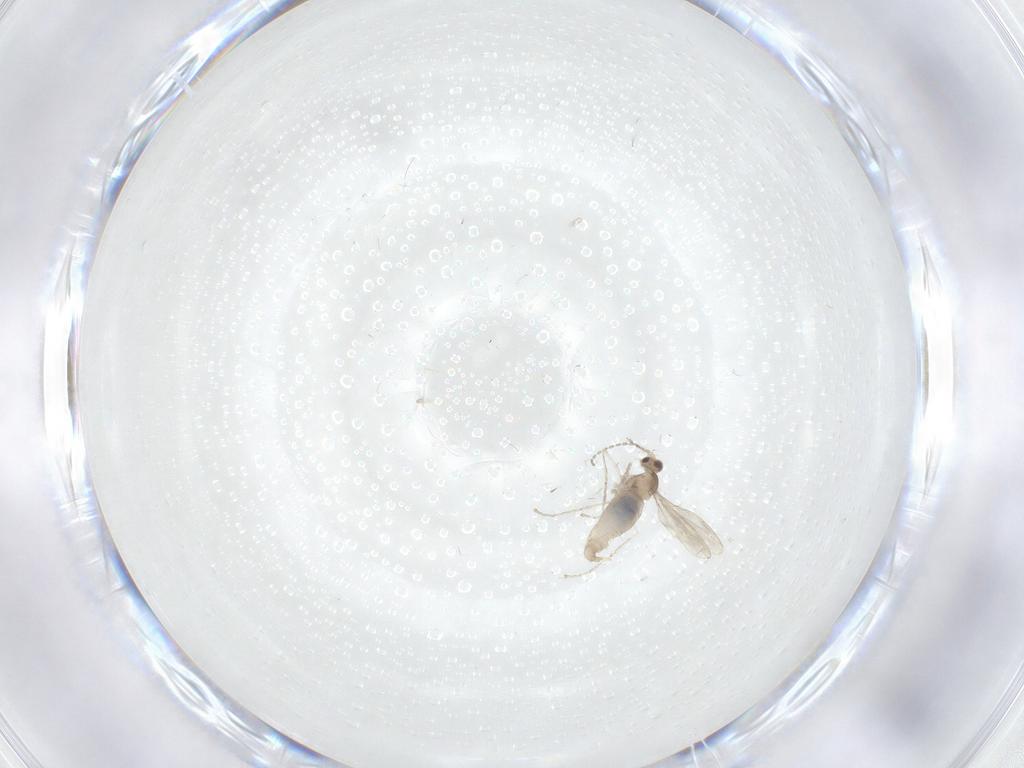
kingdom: Animalia
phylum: Arthropoda
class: Insecta
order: Diptera
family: Cecidomyiidae
